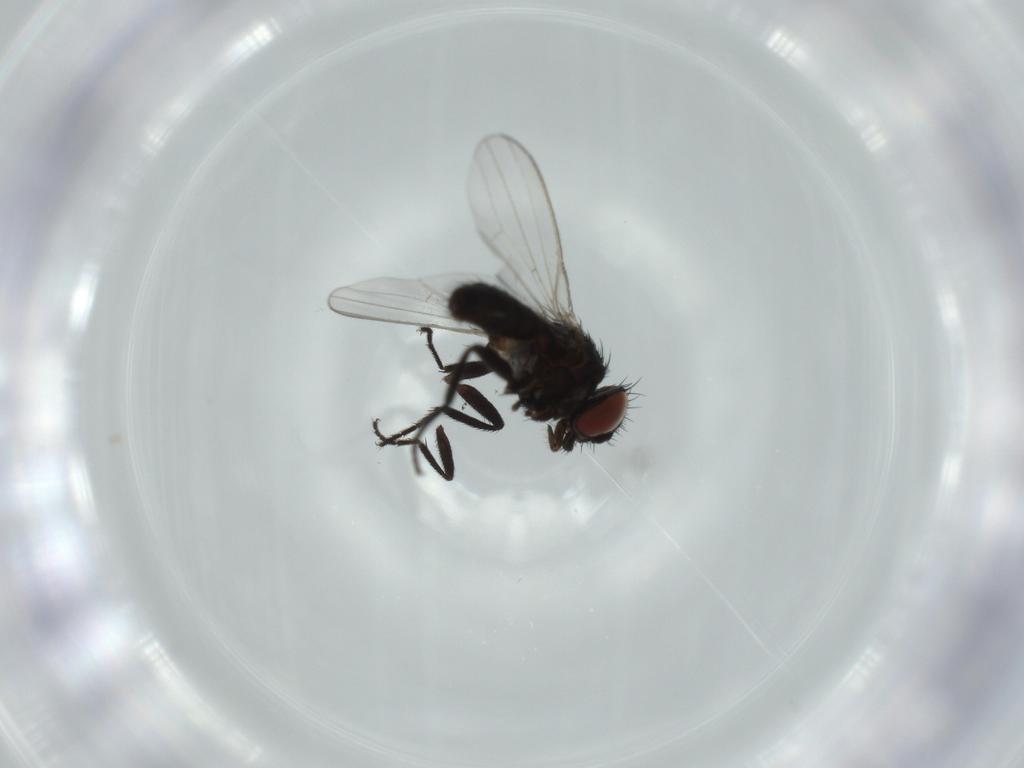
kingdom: Animalia
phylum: Arthropoda
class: Insecta
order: Diptera
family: Milichiidae
